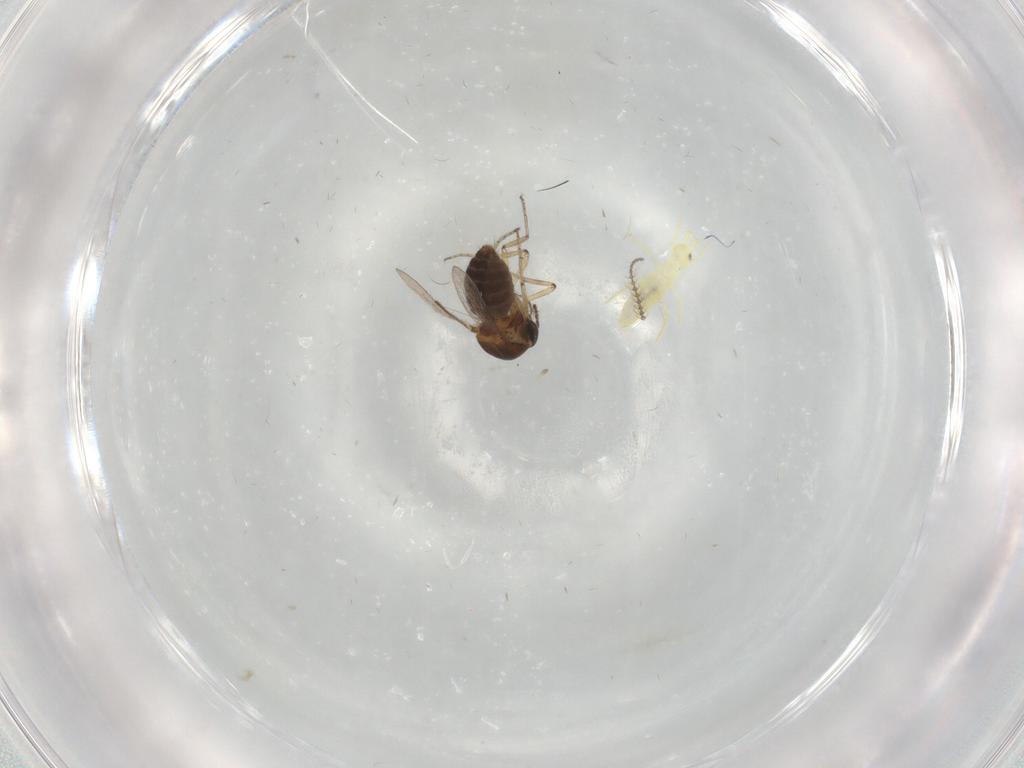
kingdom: Animalia
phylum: Arthropoda
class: Insecta
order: Diptera
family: Ceratopogonidae
